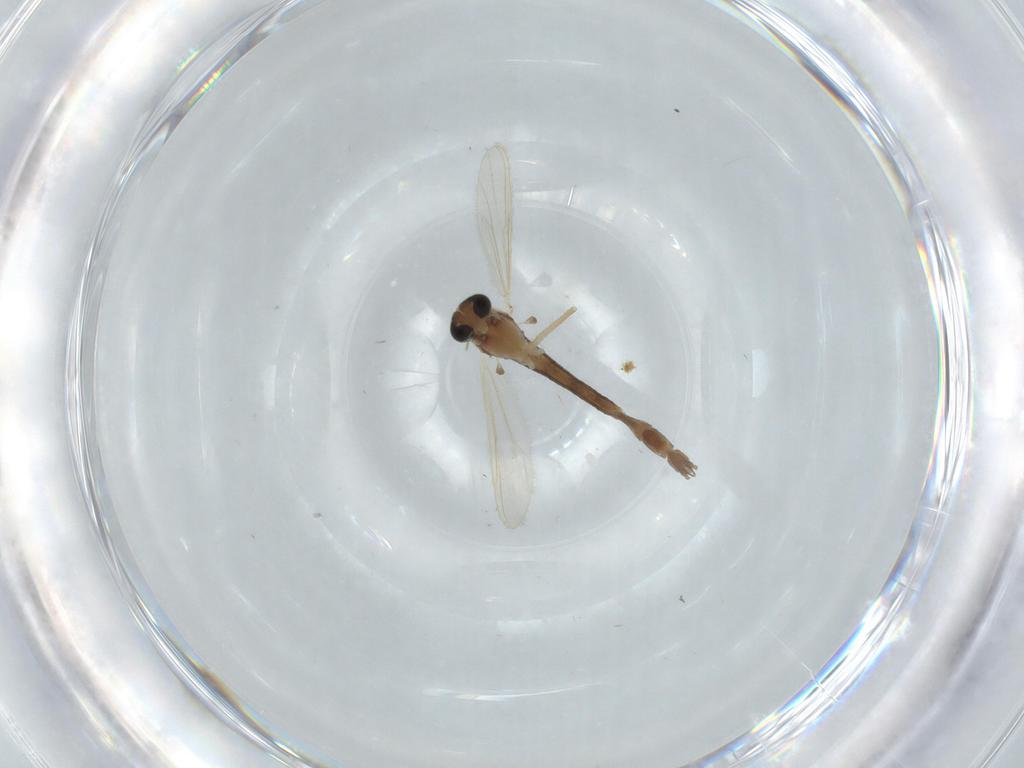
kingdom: Animalia
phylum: Arthropoda
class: Insecta
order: Diptera
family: Chironomidae
